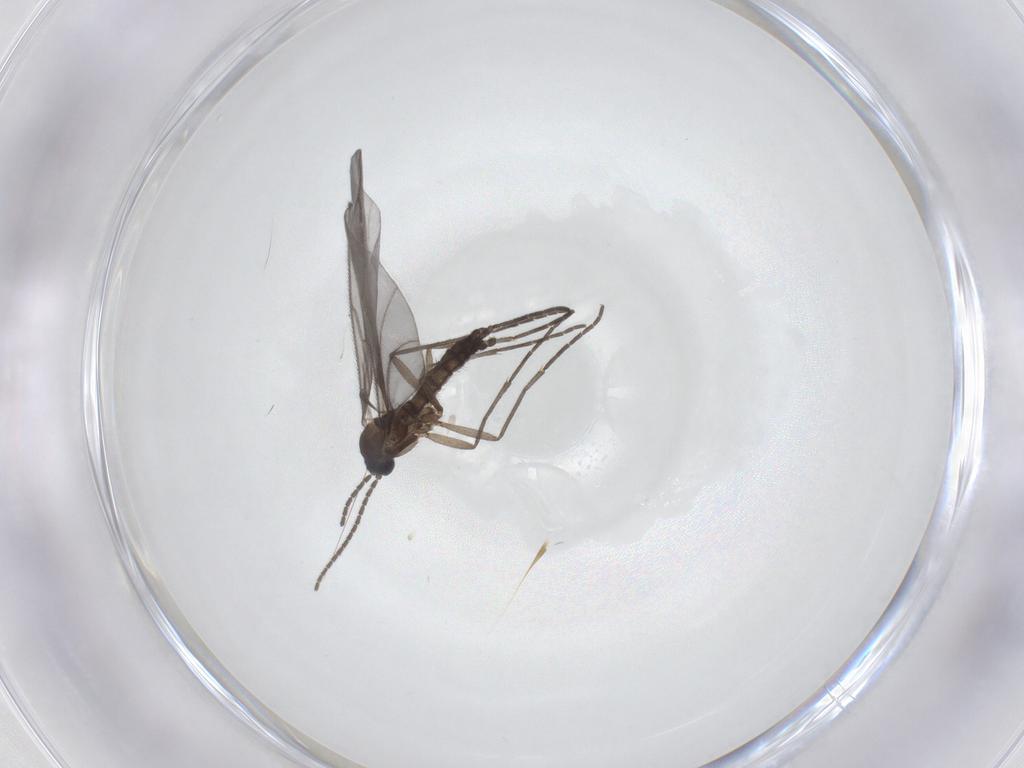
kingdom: Animalia
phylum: Arthropoda
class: Insecta
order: Diptera
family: Sciaridae
